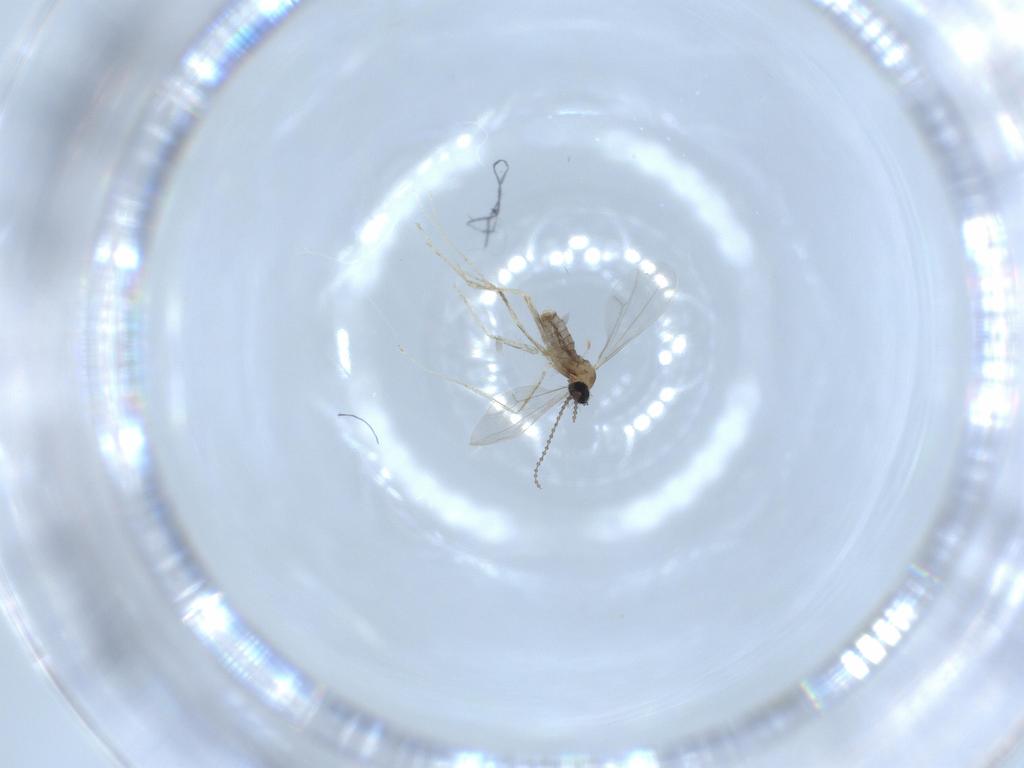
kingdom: Animalia
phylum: Arthropoda
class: Insecta
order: Diptera
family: Cecidomyiidae
